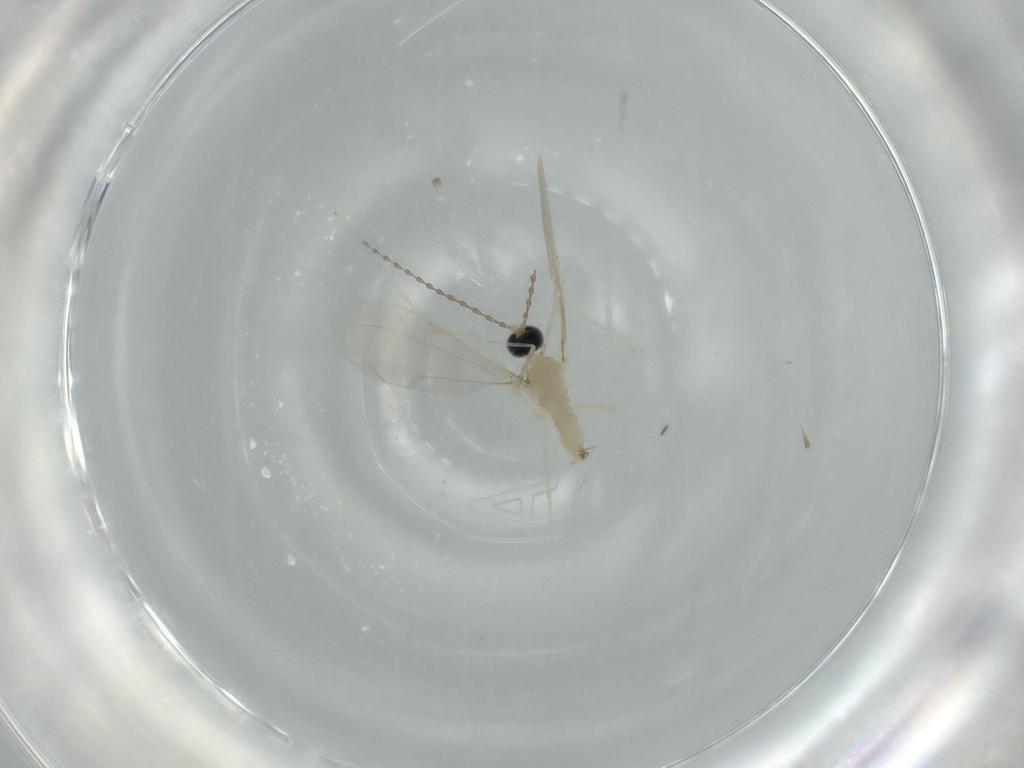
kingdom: Animalia
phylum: Arthropoda
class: Insecta
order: Diptera
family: Cecidomyiidae
